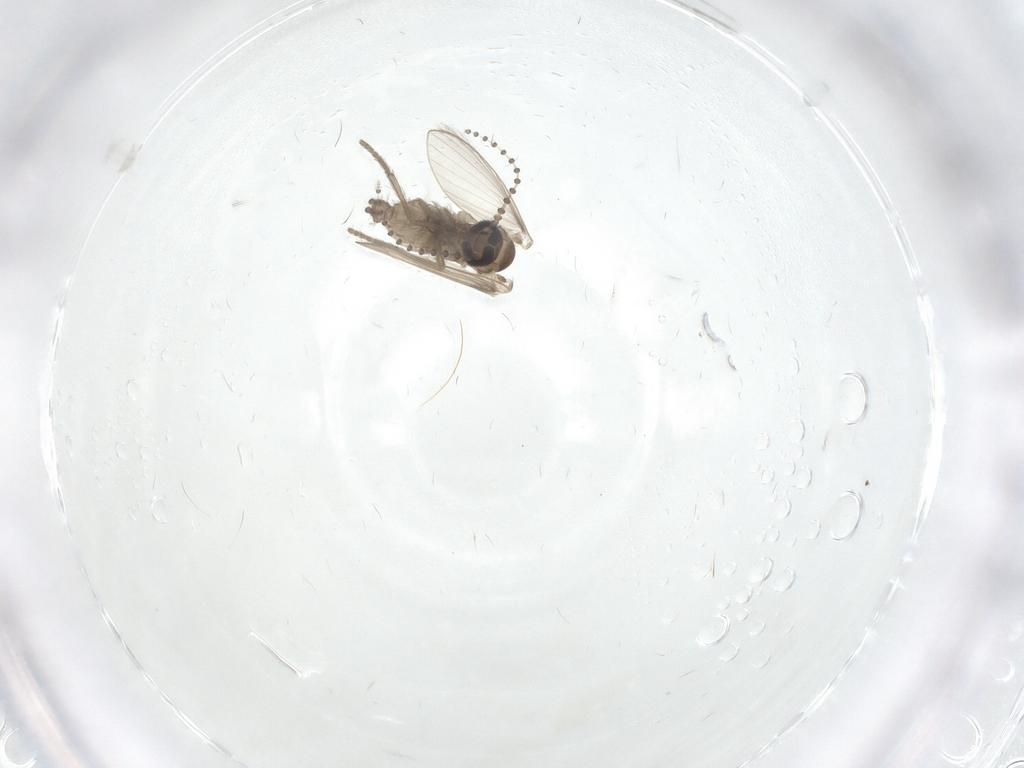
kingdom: Animalia
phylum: Arthropoda
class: Insecta
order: Diptera
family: Psychodidae
